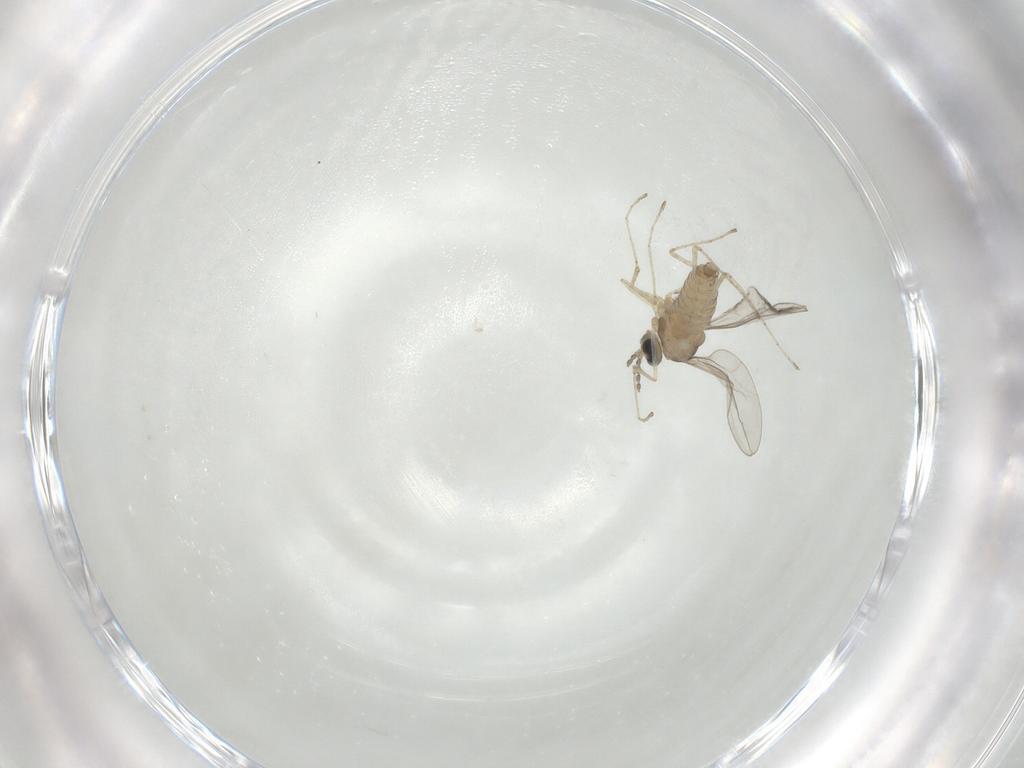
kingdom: Animalia
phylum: Arthropoda
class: Insecta
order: Diptera
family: Cecidomyiidae
